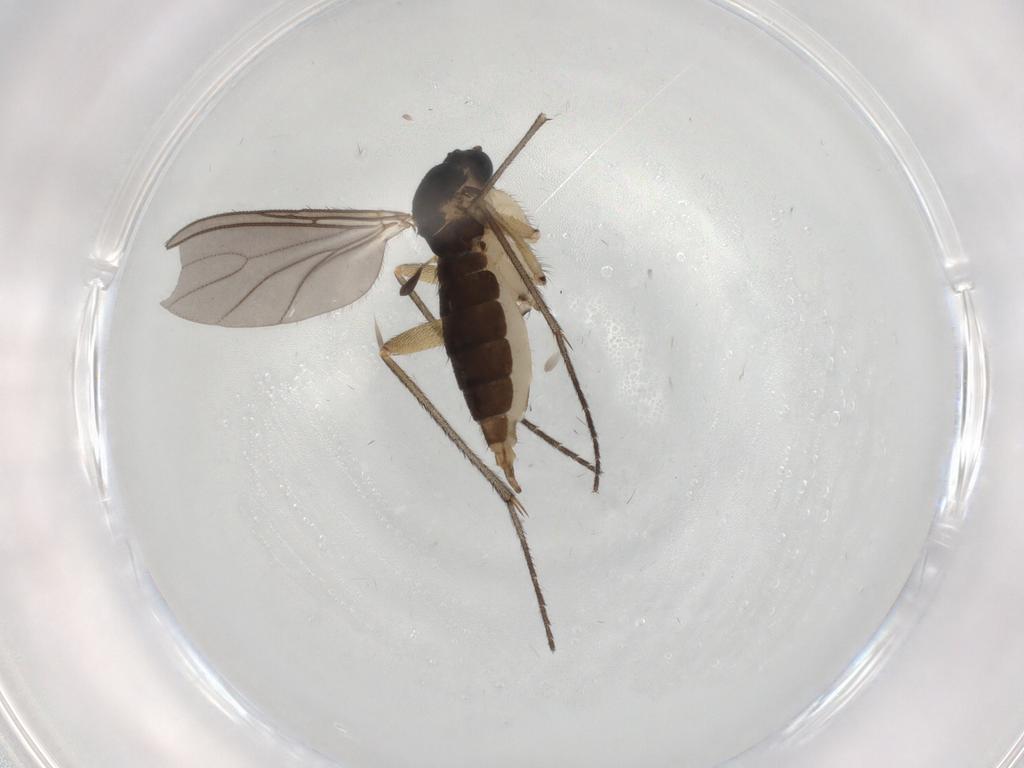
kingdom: Animalia
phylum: Arthropoda
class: Insecta
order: Diptera
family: Sciaridae
